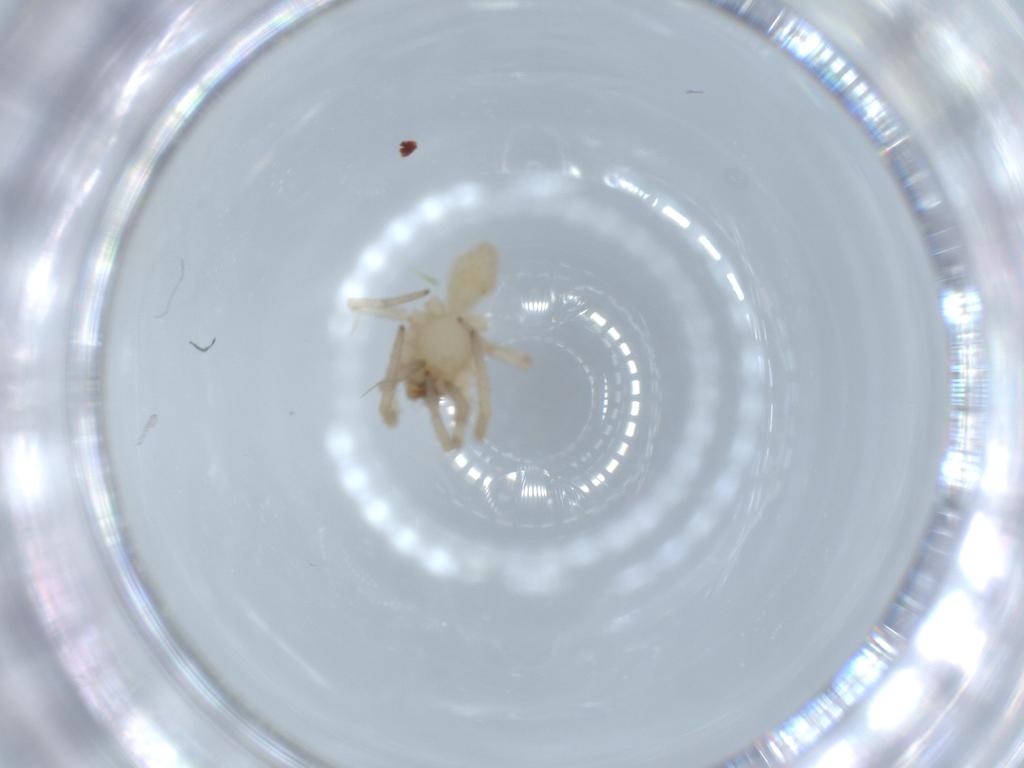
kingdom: Animalia
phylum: Arthropoda
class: Arachnida
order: Araneae
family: Corinnidae
